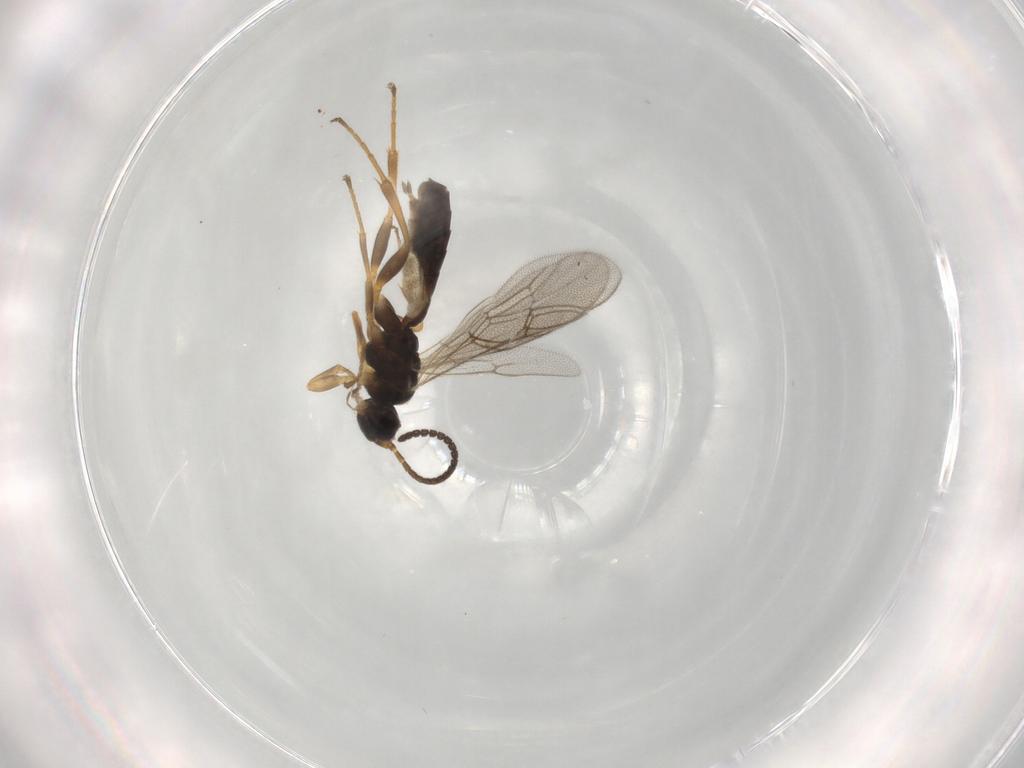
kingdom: Animalia
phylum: Arthropoda
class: Insecta
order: Hymenoptera
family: Ichneumonidae
